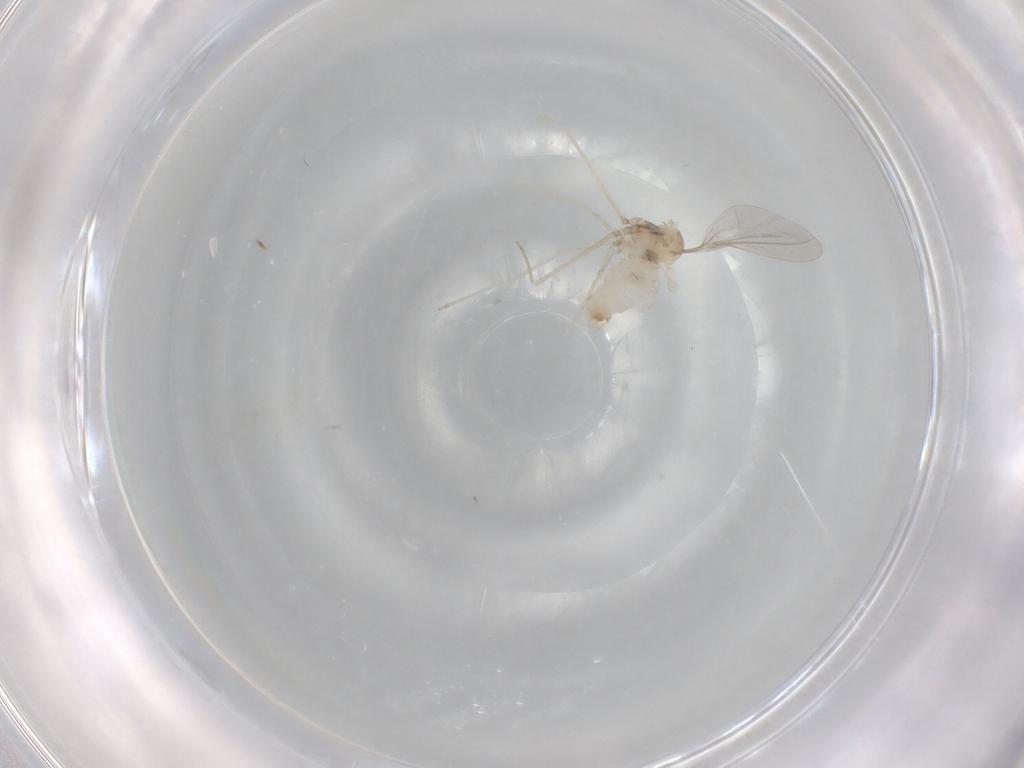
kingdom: Animalia
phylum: Arthropoda
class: Insecta
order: Diptera
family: Cecidomyiidae
